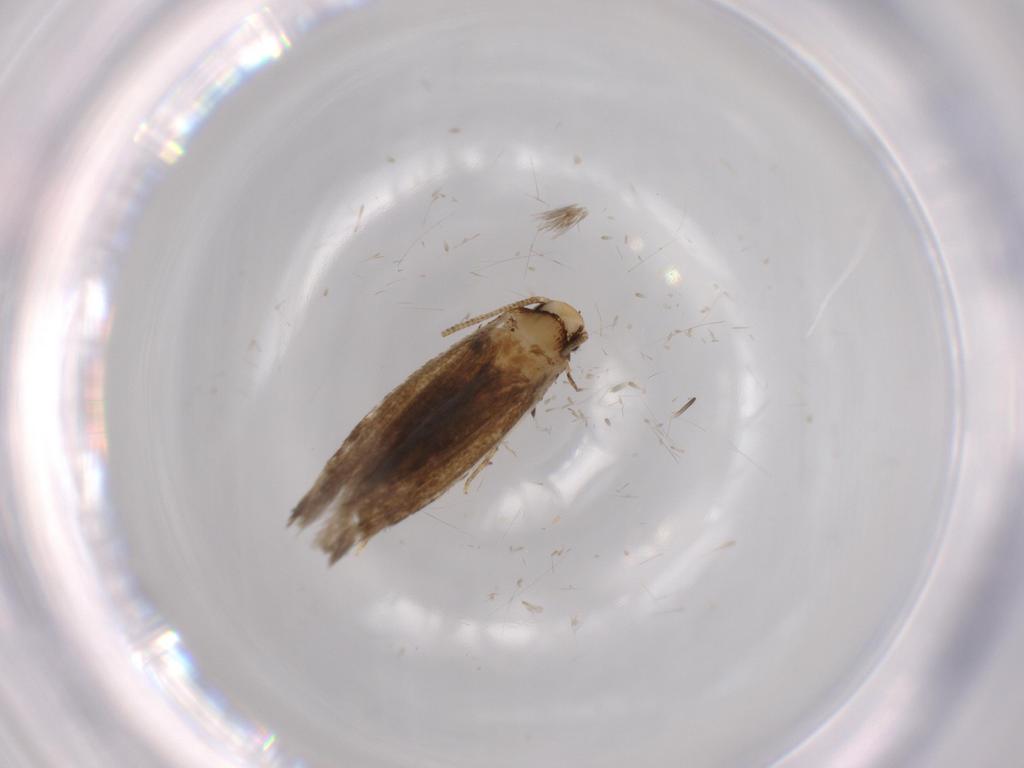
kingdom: Animalia
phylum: Arthropoda
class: Insecta
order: Lepidoptera
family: Tineidae
